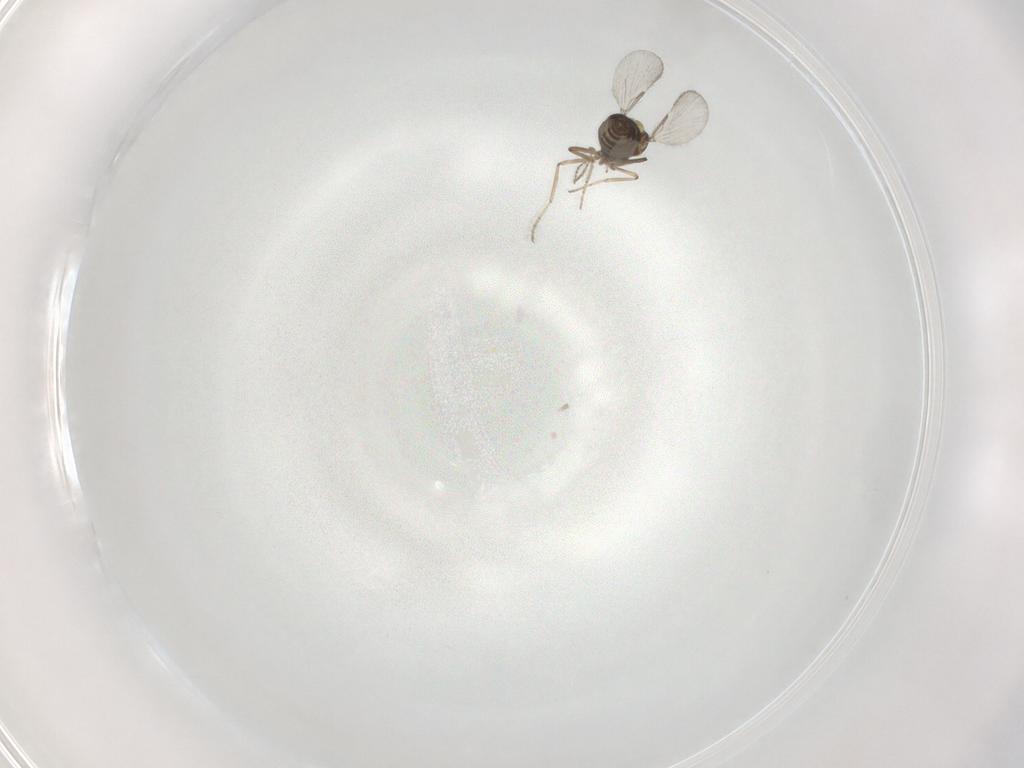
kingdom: Animalia
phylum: Arthropoda
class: Insecta
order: Diptera
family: Ceratopogonidae
